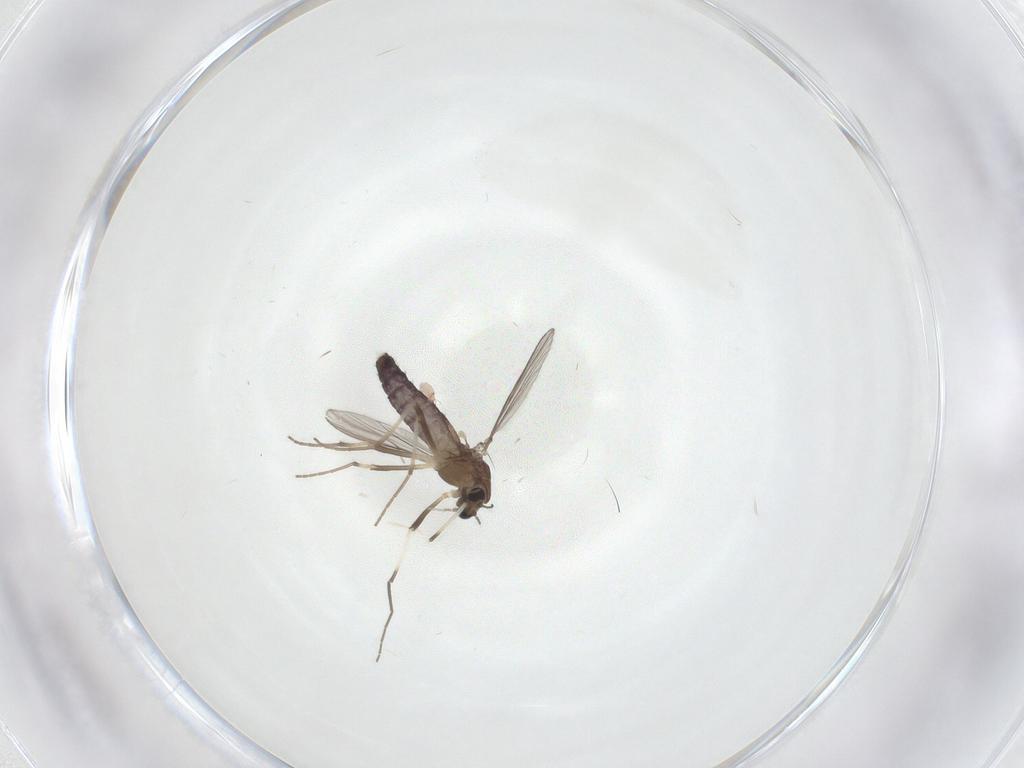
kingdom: Animalia
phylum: Arthropoda
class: Insecta
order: Diptera
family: Chironomidae
